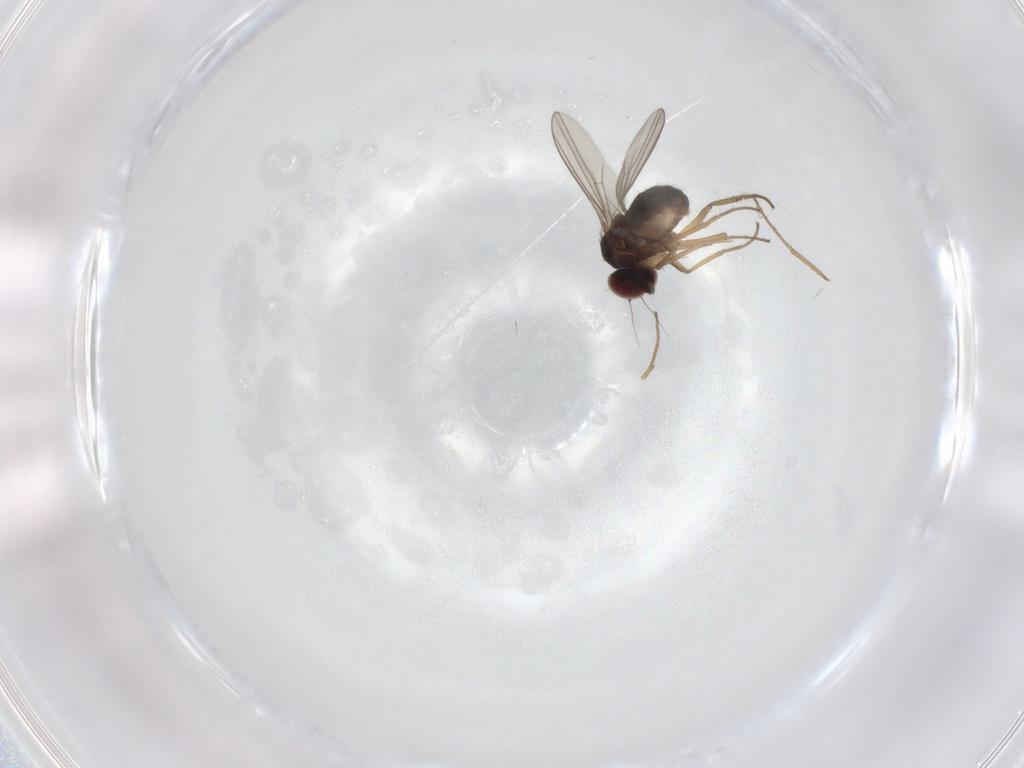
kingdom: Animalia
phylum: Arthropoda
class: Insecta
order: Diptera
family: Dolichopodidae
